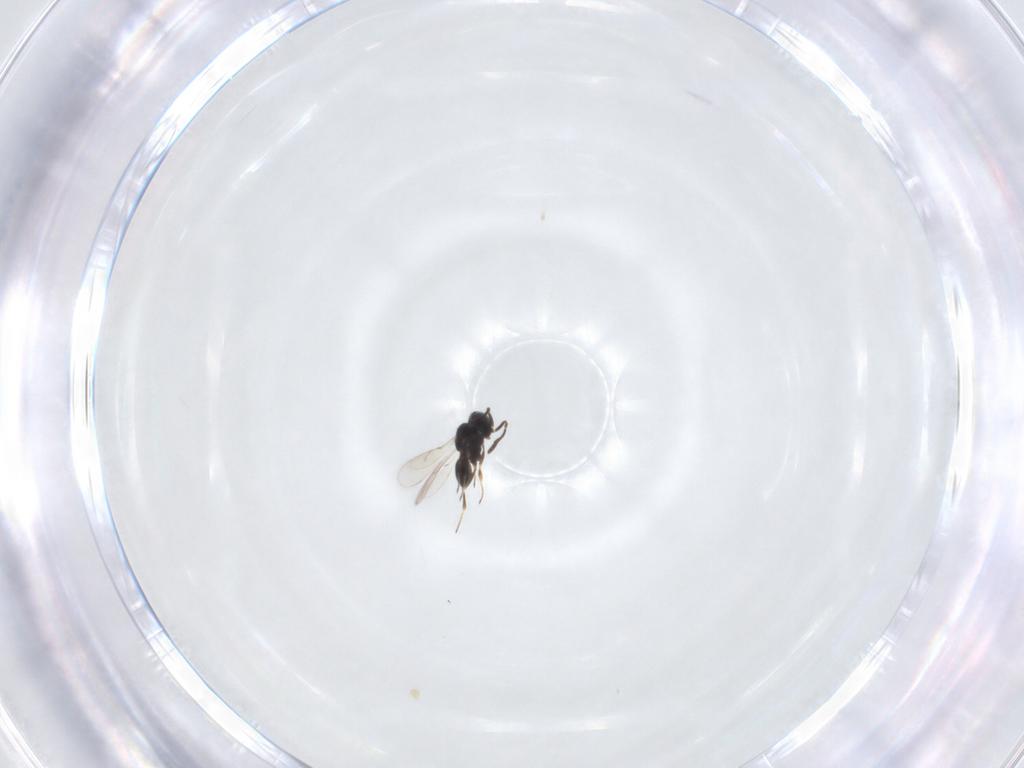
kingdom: Animalia
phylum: Arthropoda
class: Insecta
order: Hymenoptera
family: Scelionidae
